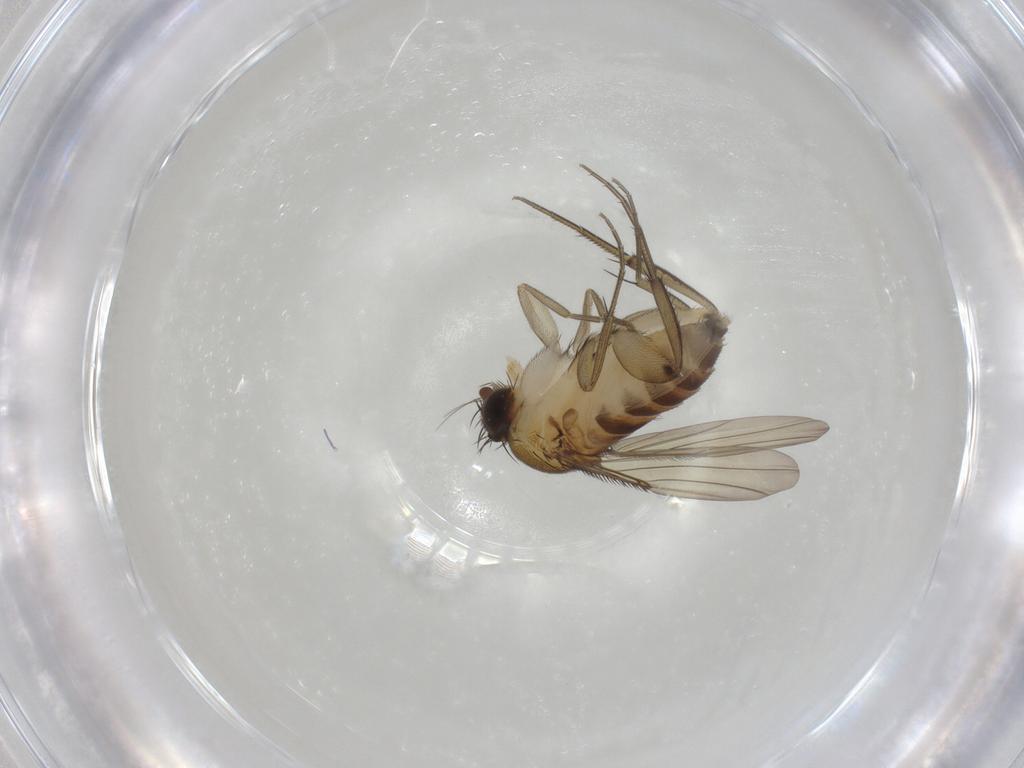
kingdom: Animalia
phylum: Arthropoda
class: Insecta
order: Diptera
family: Phoridae
